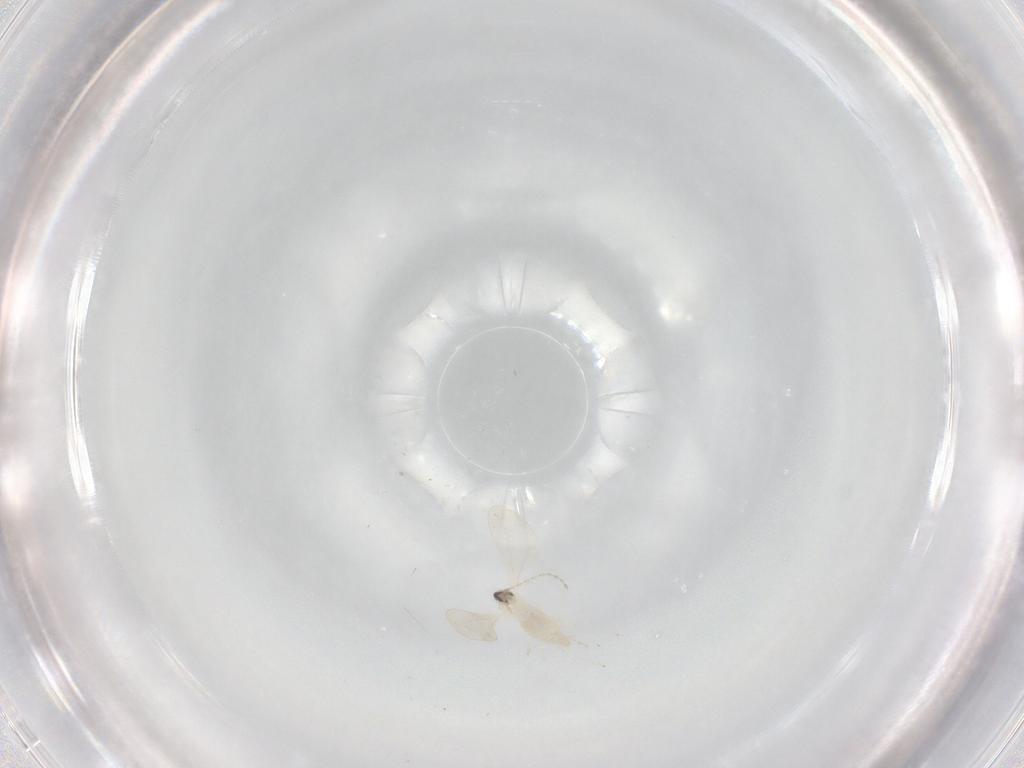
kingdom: Animalia
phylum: Arthropoda
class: Insecta
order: Diptera
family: Cecidomyiidae
